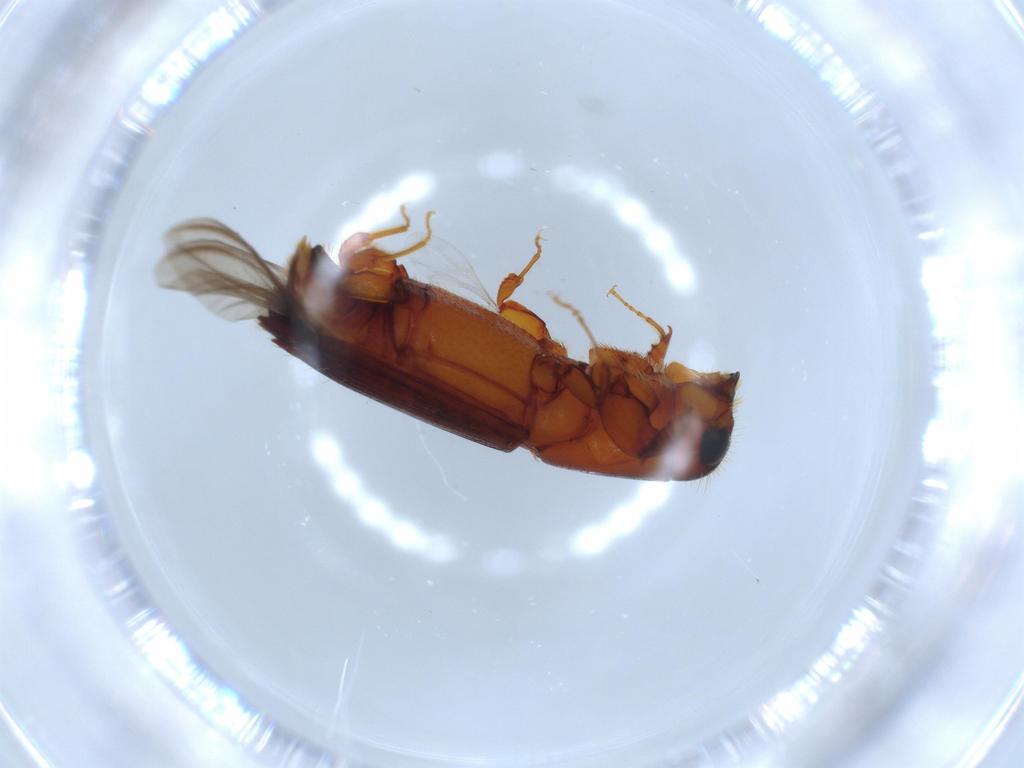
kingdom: Animalia
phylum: Arthropoda
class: Insecta
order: Coleoptera
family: Curculionidae
